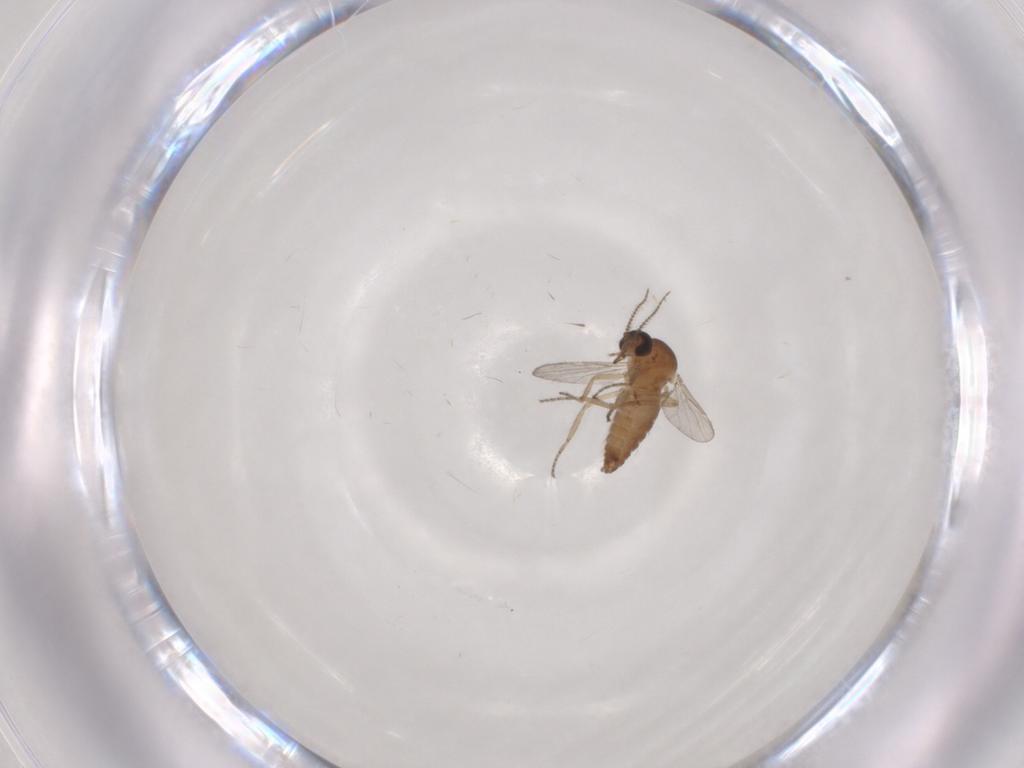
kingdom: Animalia
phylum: Arthropoda
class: Insecta
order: Diptera
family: Ceratopogonidae
